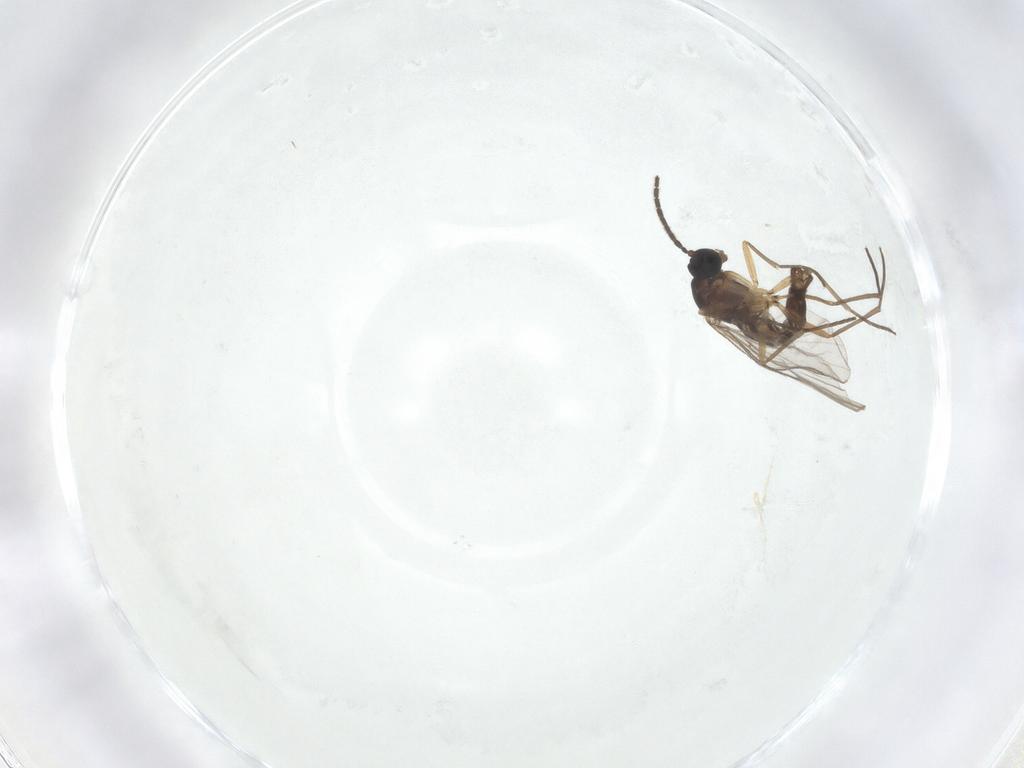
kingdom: Animalia
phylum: Arthropoda
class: Insecta
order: Diptera
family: Sciaridae
